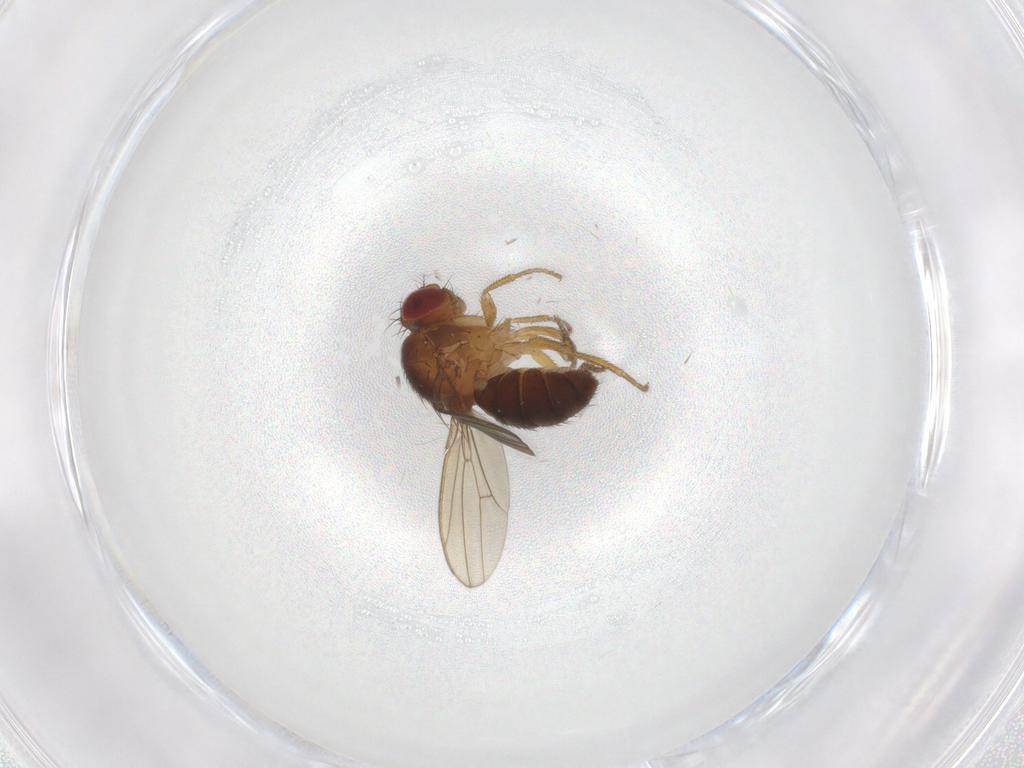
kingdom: Animalia
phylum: Arthropoda
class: Insecta
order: Diptera
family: Drosophilidae
